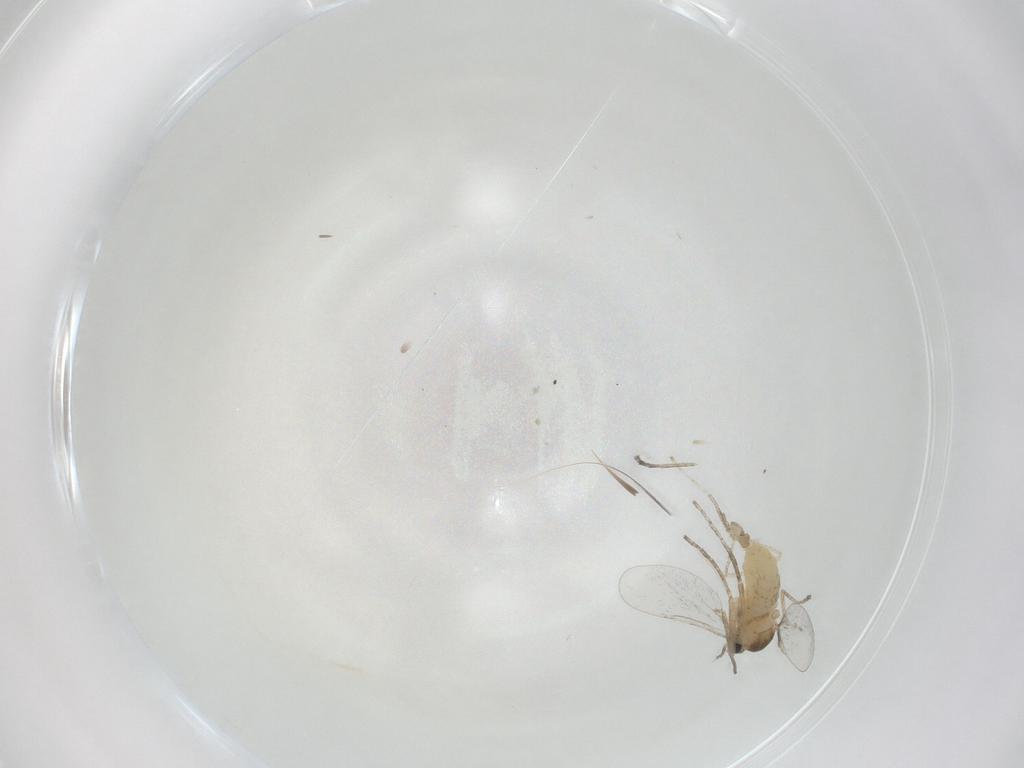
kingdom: Animalia
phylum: Arthropoda
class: Insecta
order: Diptera
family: Cecidomyiidae
